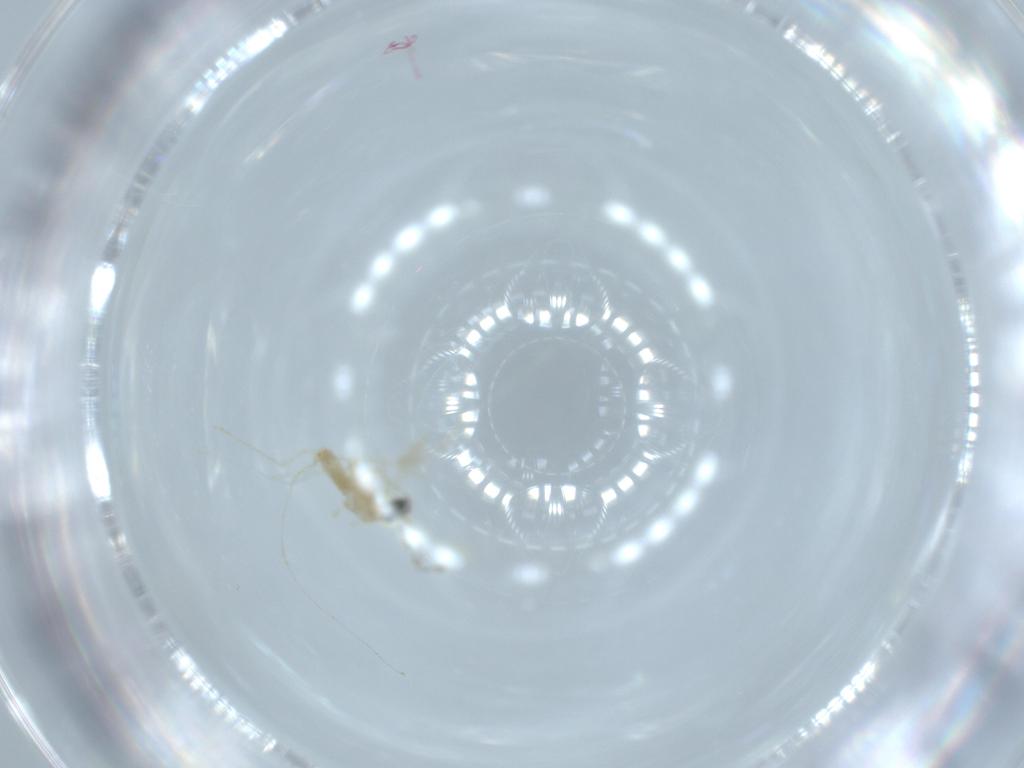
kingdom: Animalia
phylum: Arthropoda
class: Insecta
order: Diptera
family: Cecidomyiidae
